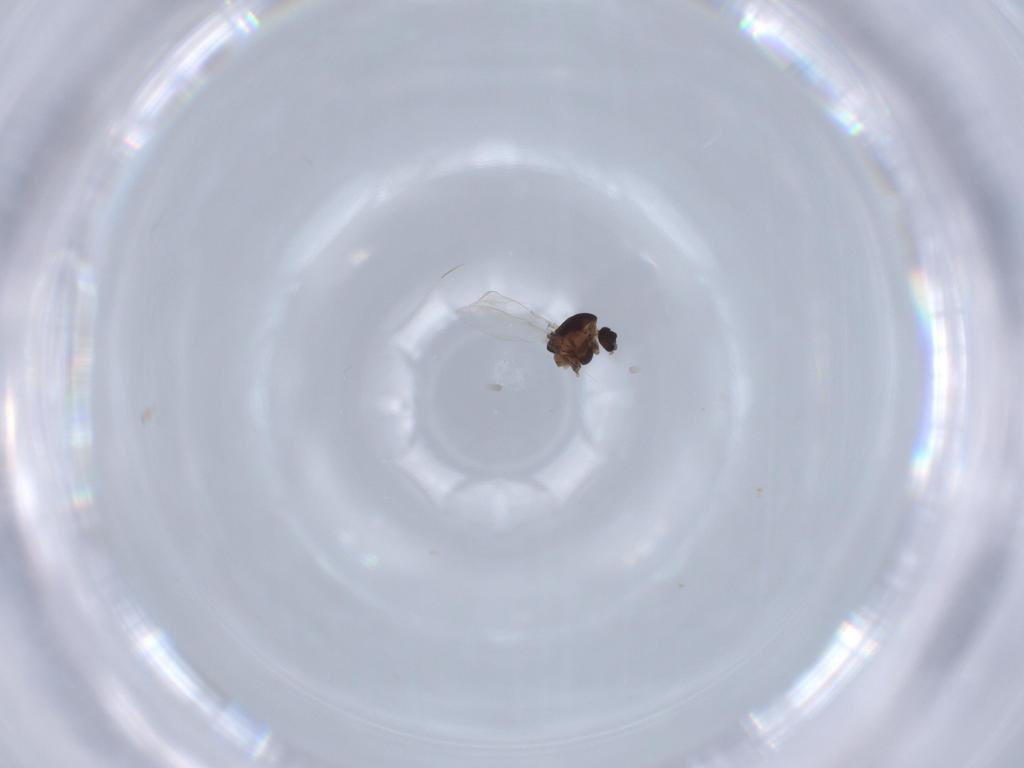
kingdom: Animalia
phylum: Arthropoda
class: Insecta
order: Diptera
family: Chironomidae
